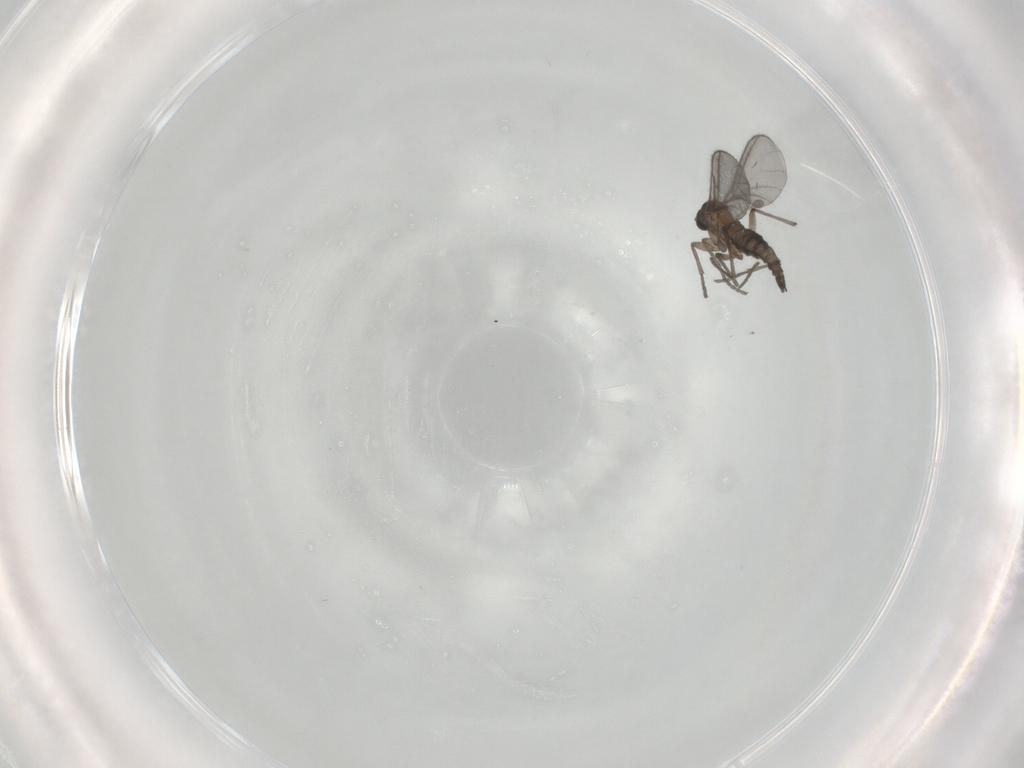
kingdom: Animalia
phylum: Arthropoda
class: Insecta
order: Diptera
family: Sciaridae
